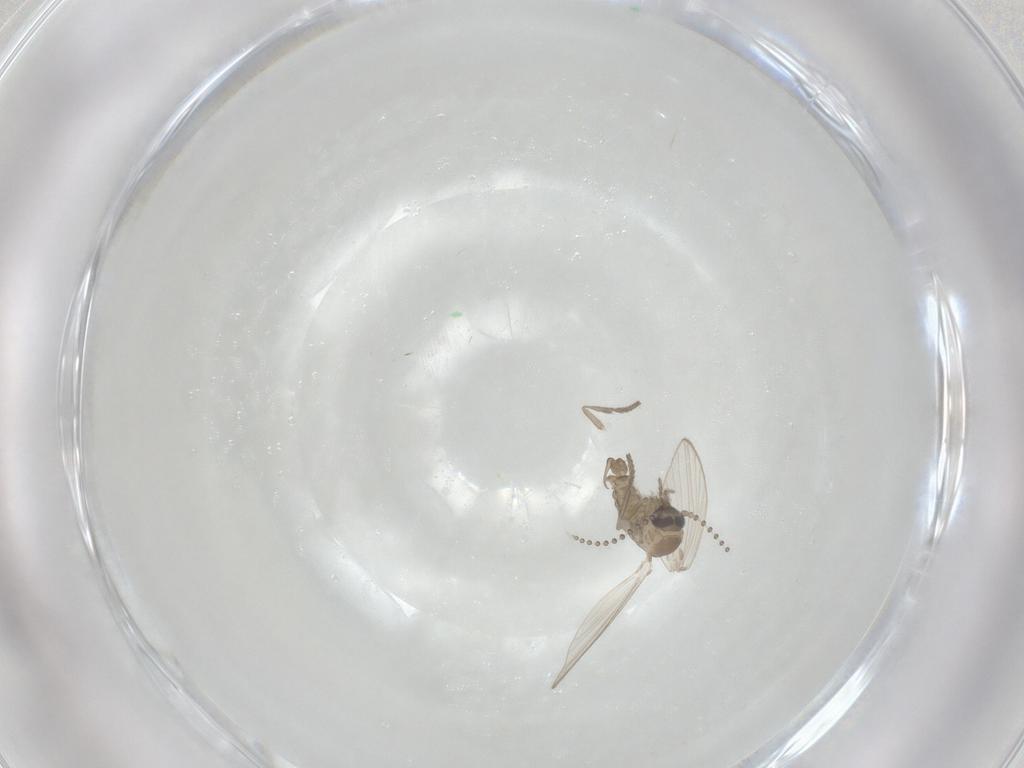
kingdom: Animalia
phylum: Arthropoda
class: Insecta
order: Diptera
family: Psychodidae
